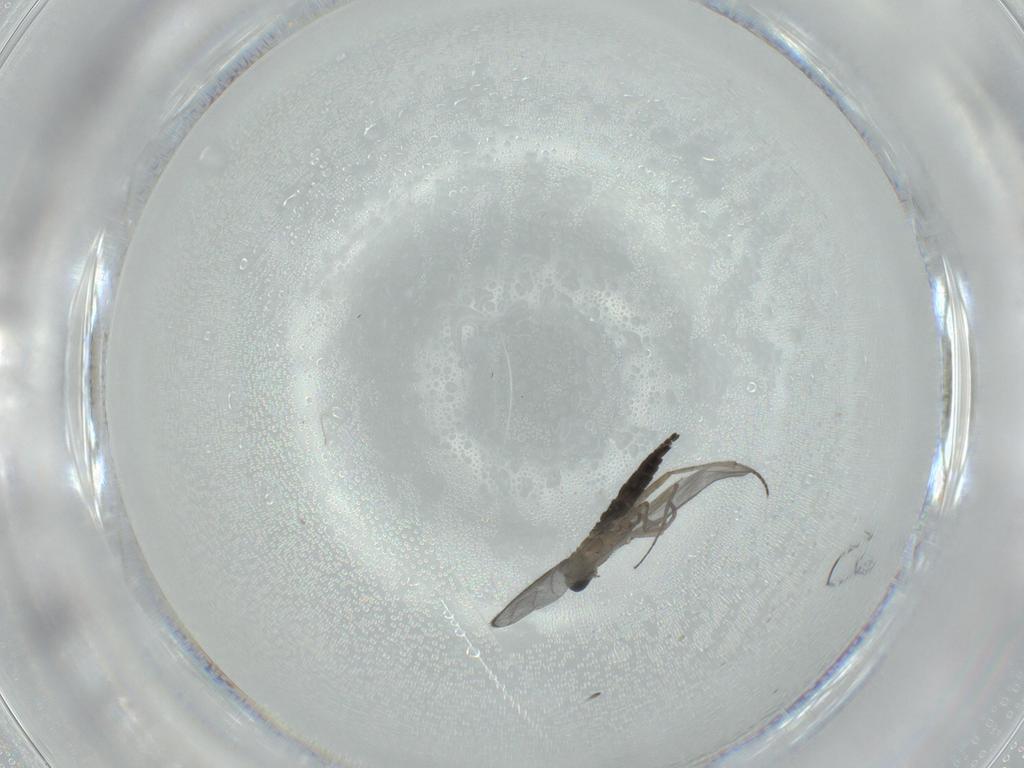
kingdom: Animalia
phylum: Arthropoda
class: Insecta
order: Diptera
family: Sciaridae
